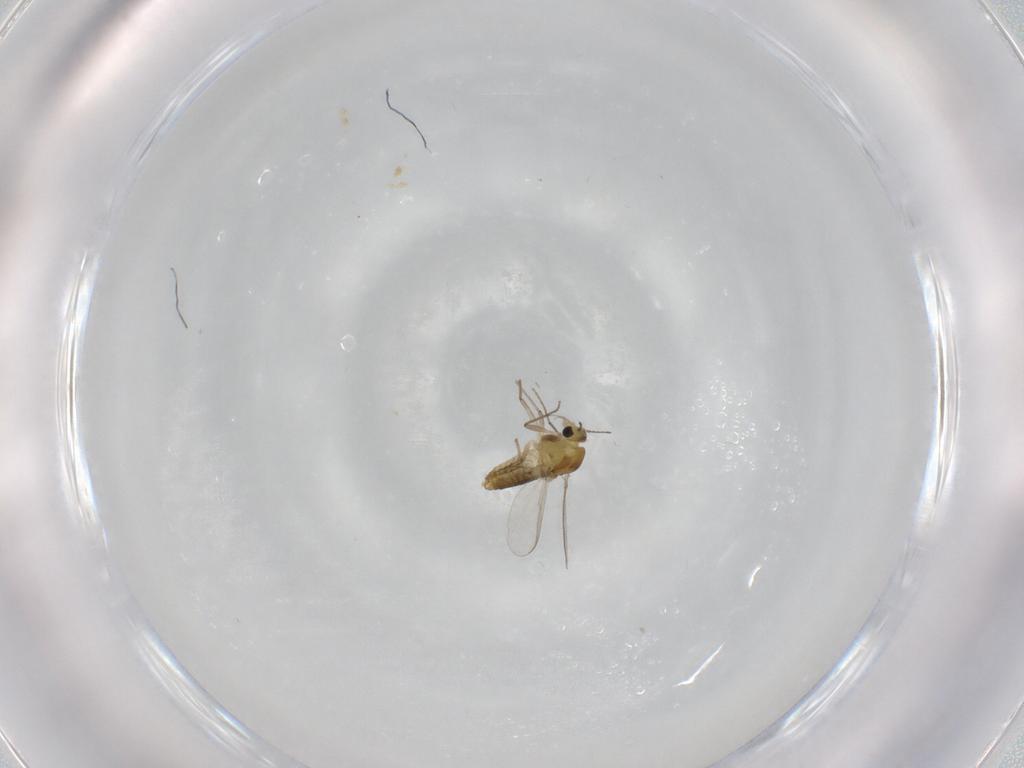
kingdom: Animalia
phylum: Arthropoda
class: Insecta
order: Diptera
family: Chironomidae
